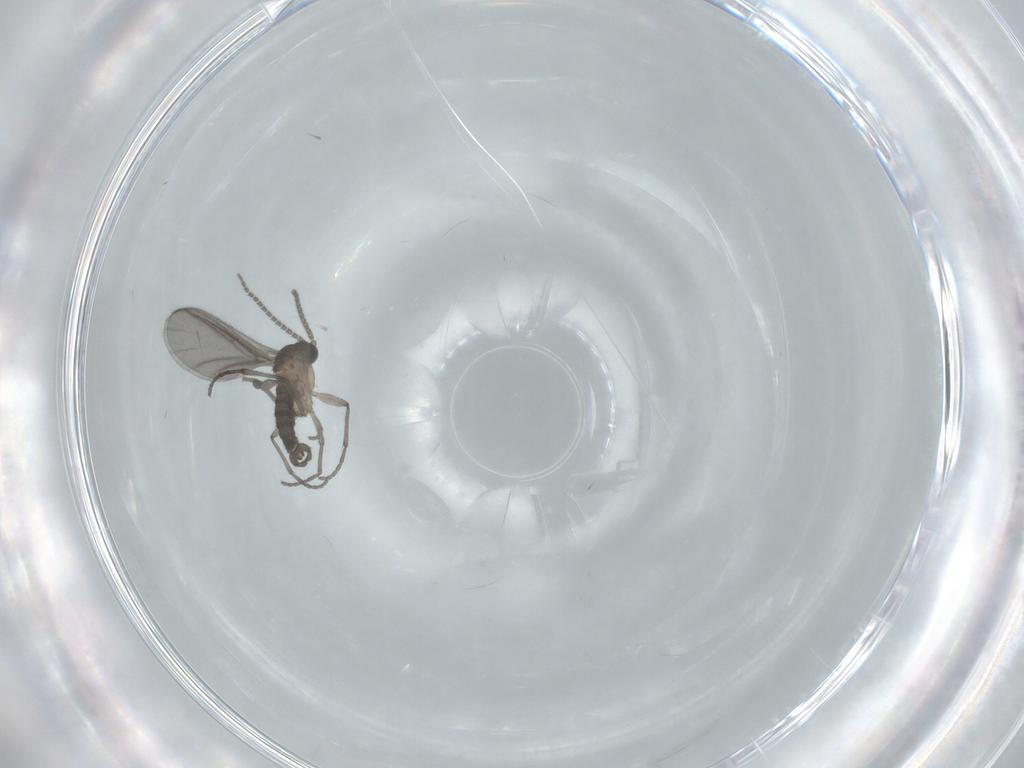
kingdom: Animalia
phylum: Arthropoda
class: Insecta
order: Diptera
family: Sciaridae
